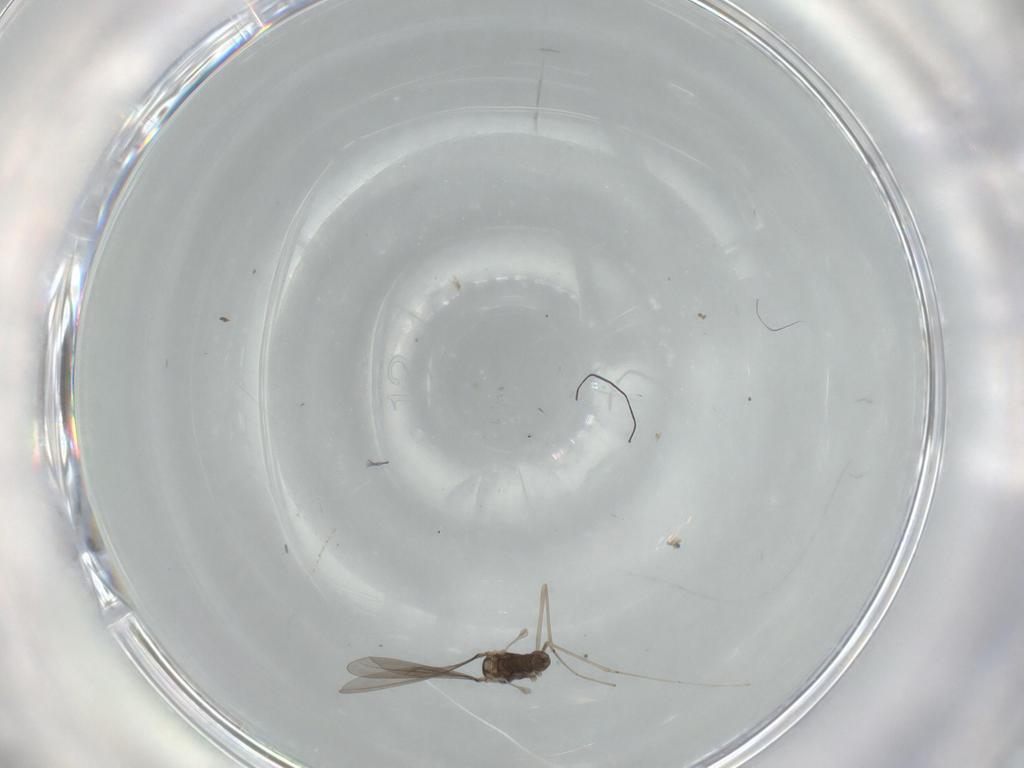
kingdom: Animalia
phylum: Arthropoda
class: Insecta
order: Diptera
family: Cecidomyiidae
